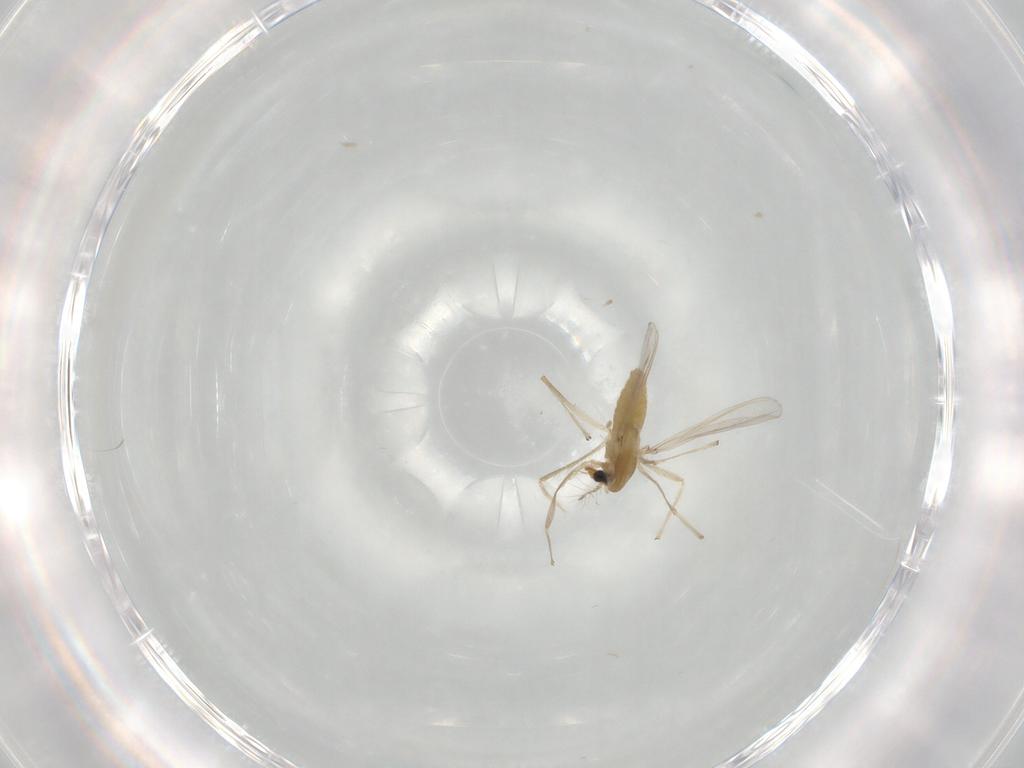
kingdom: Animalia
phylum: Arthropoda
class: Insecta
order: Diptera
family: Chironomidae
